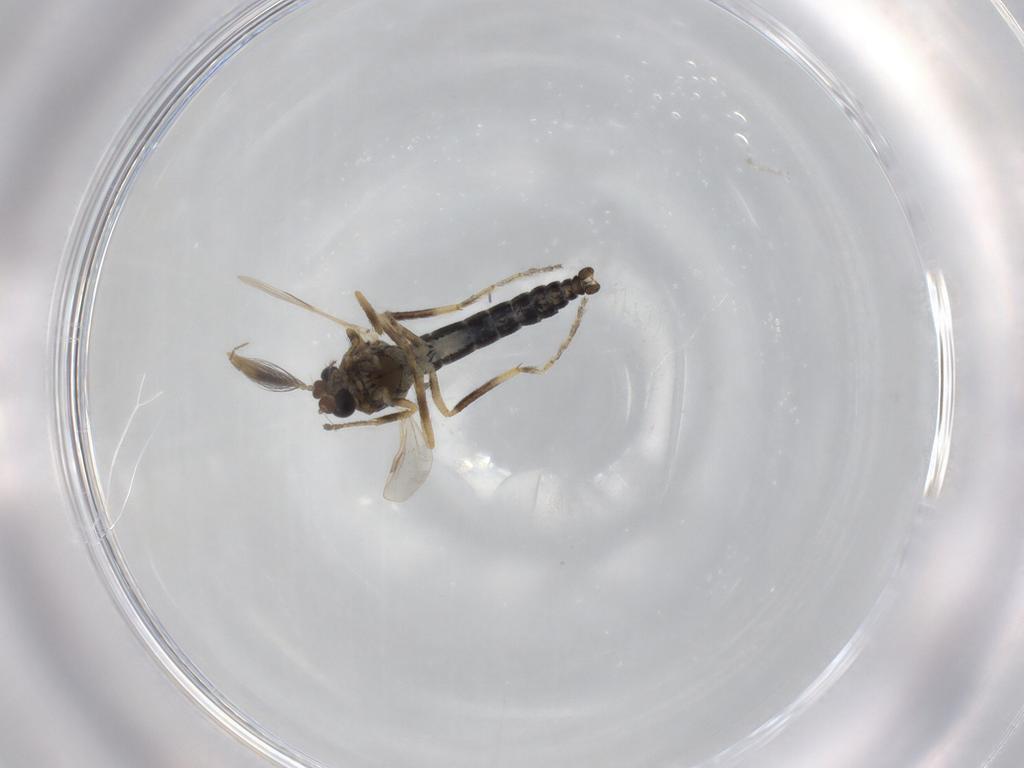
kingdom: Animalia
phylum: Arthropoda
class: Insecta
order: Diptera
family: Ceratopogonidae
